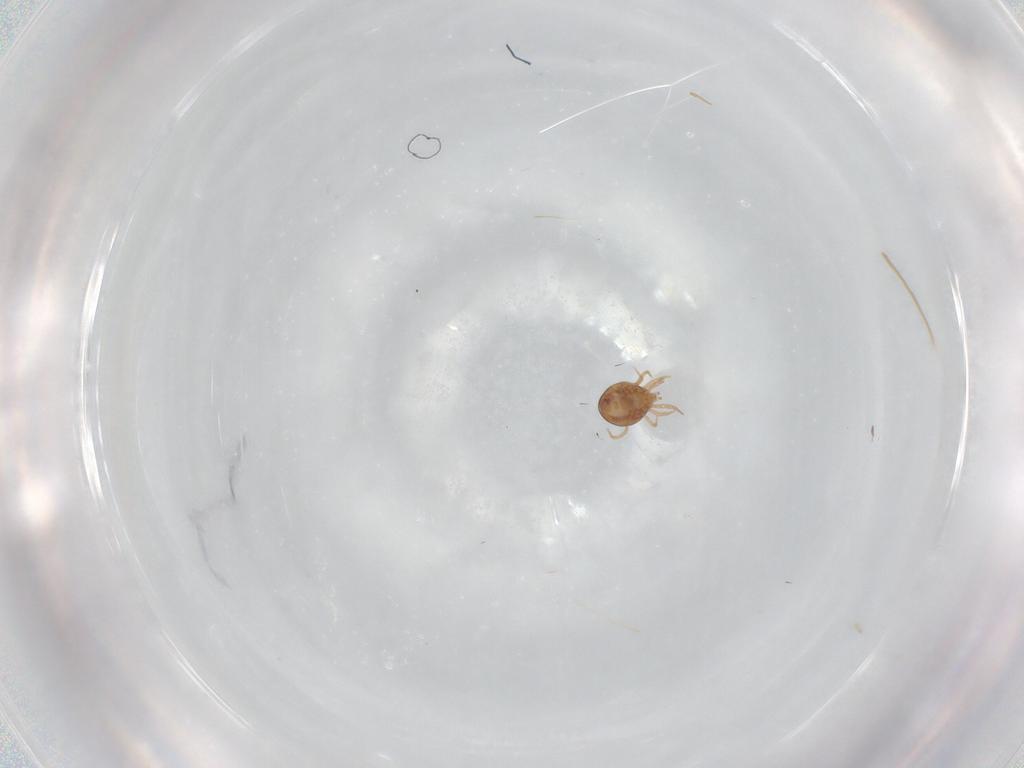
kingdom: Animalia
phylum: Arthropoda
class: Arachnida
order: Mesostigmata
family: Phytoseiidae
